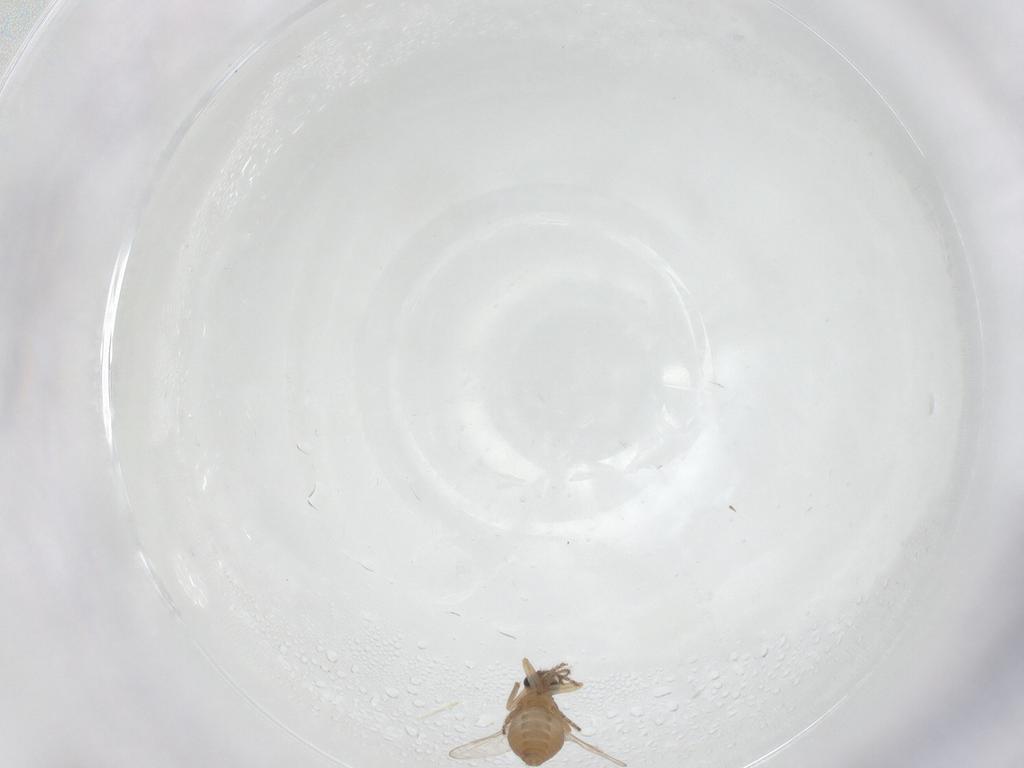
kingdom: Animalia
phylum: Arthropoda
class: Insecta
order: Diptera
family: Ceratopogonidae
